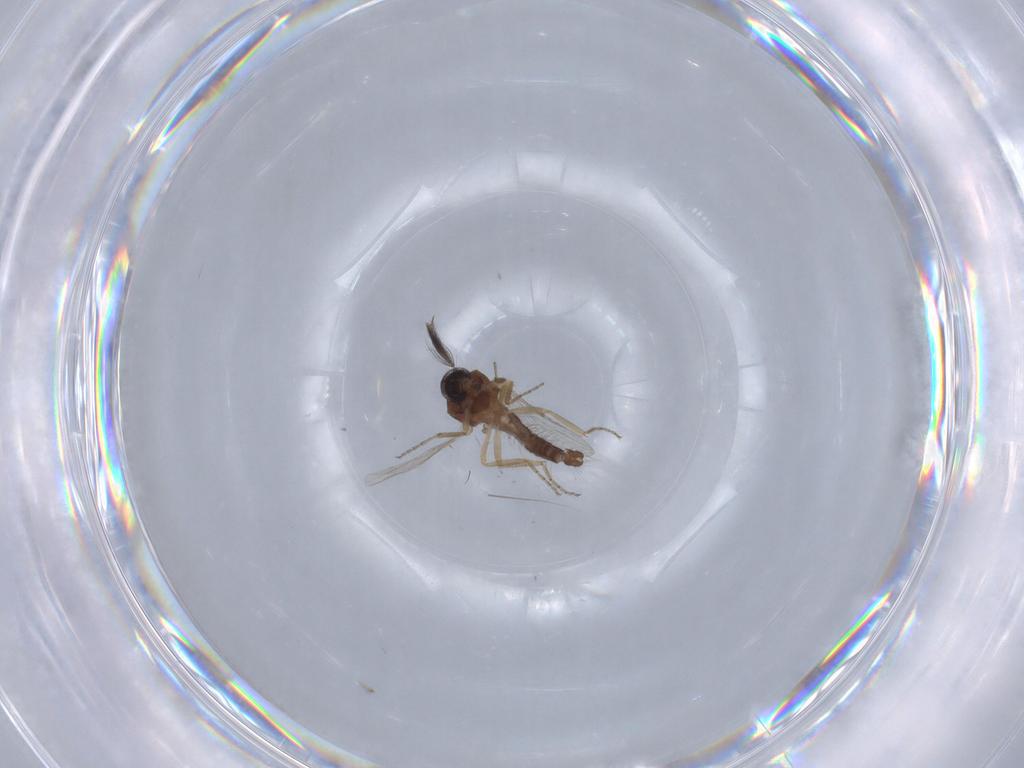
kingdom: Animalia
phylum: Arthropoda
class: Insecta
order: Diptera
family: Ceratopogonidae
